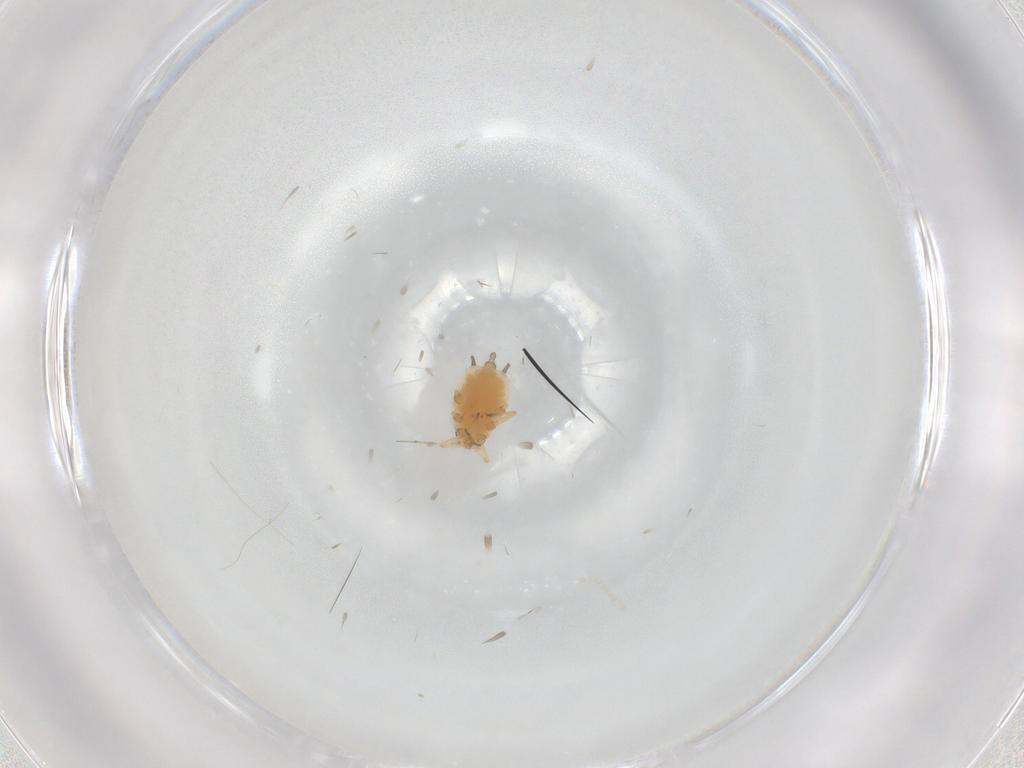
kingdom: Animalia
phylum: Arthropoda
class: Insecta
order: Hemiptera
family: Aphididae
